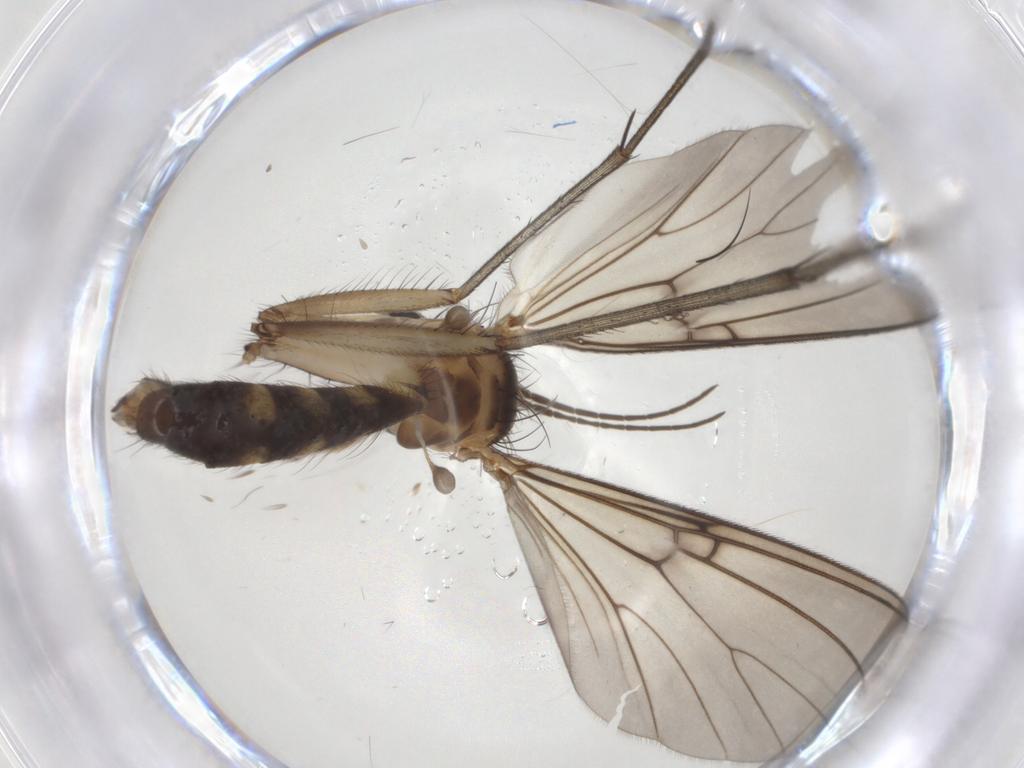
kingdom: Animalia
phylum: Arthropoda
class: Insecta
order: Diptera
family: Mycetophilidae
